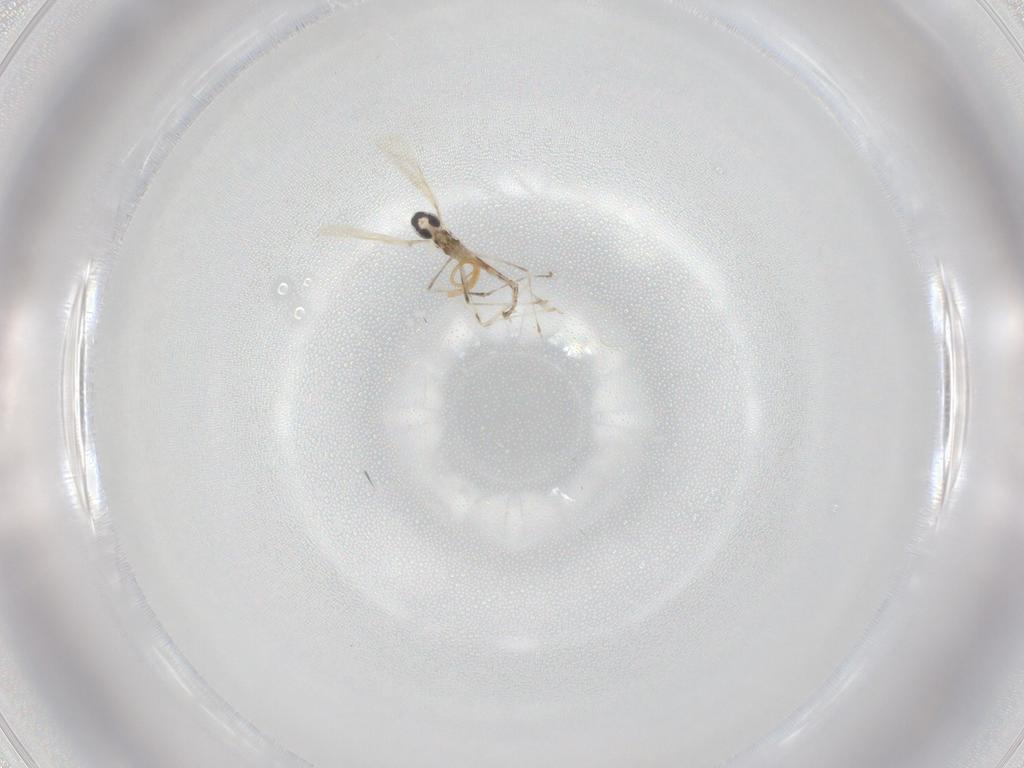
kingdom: Animalia
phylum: Arthropoda
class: Insecta
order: Diptera
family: Cecidomyiidae
